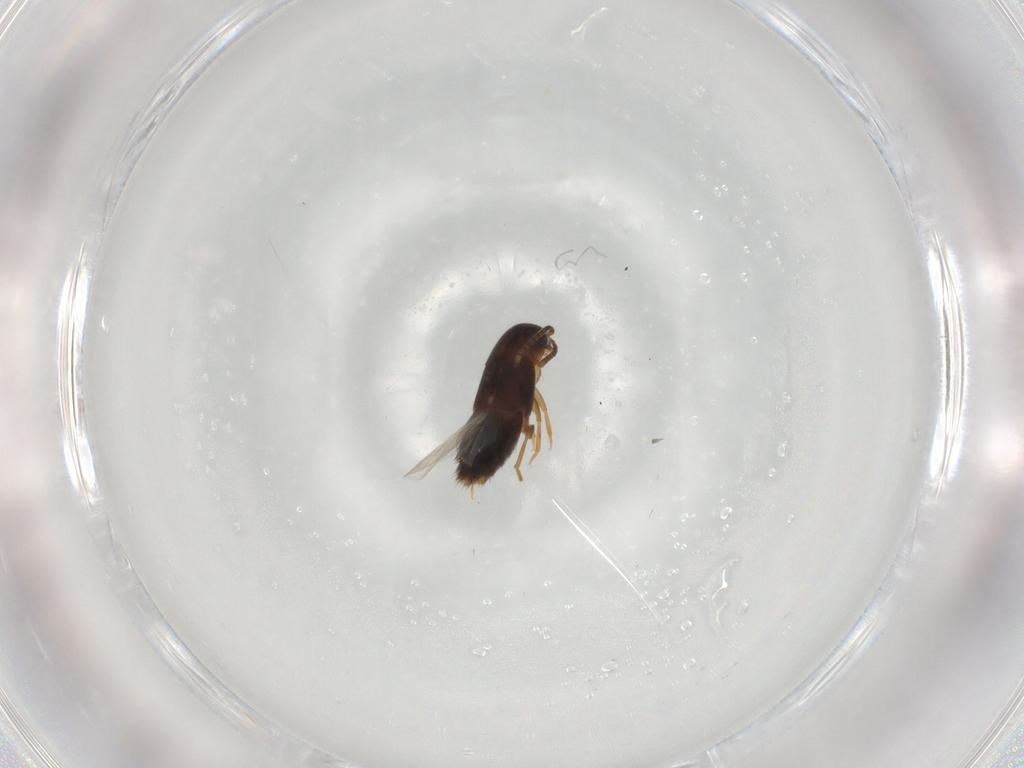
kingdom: Animalia
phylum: Arthropoda
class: Insecta
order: Coleoptera
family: Staphylinidae
